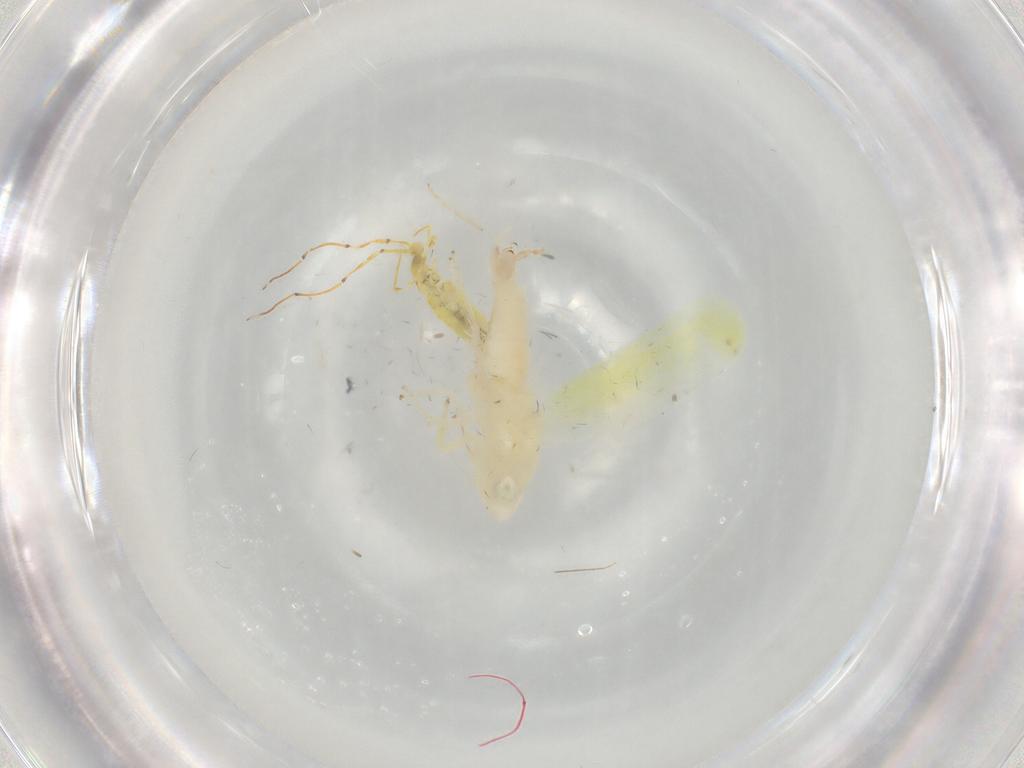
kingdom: Animalia
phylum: Arthropoda
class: Insecta
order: Hemiptera
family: Cicadellidae
